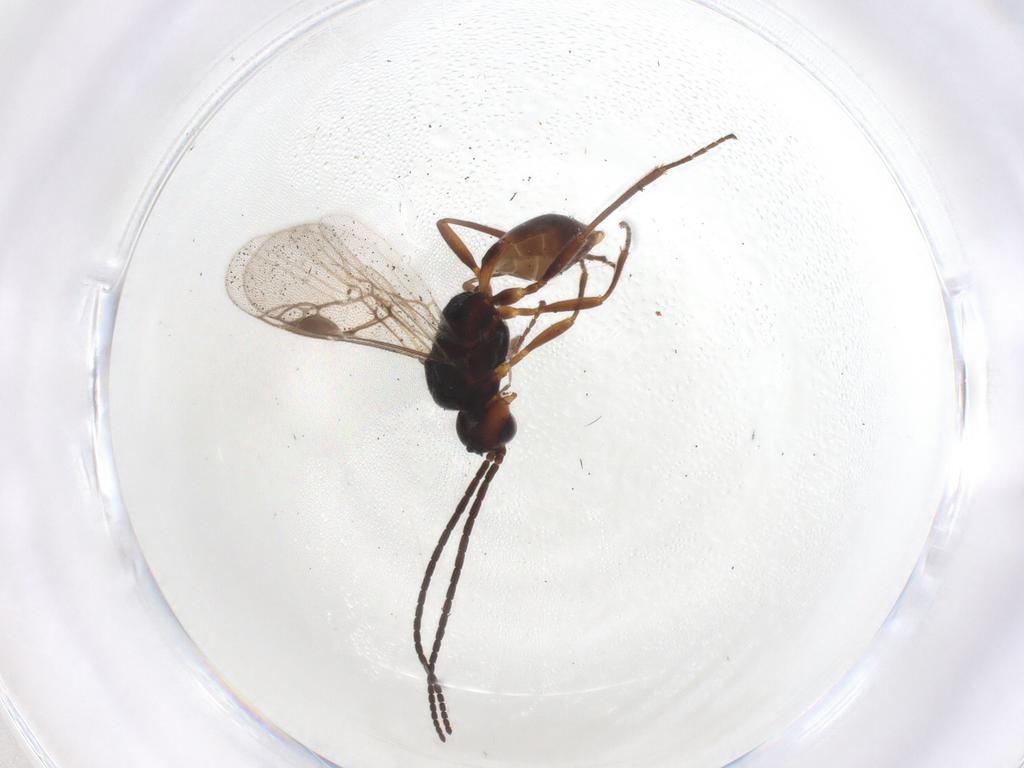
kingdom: Animalia
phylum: Arthropoda
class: Insecta
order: Hymenoptera
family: Braconidae
